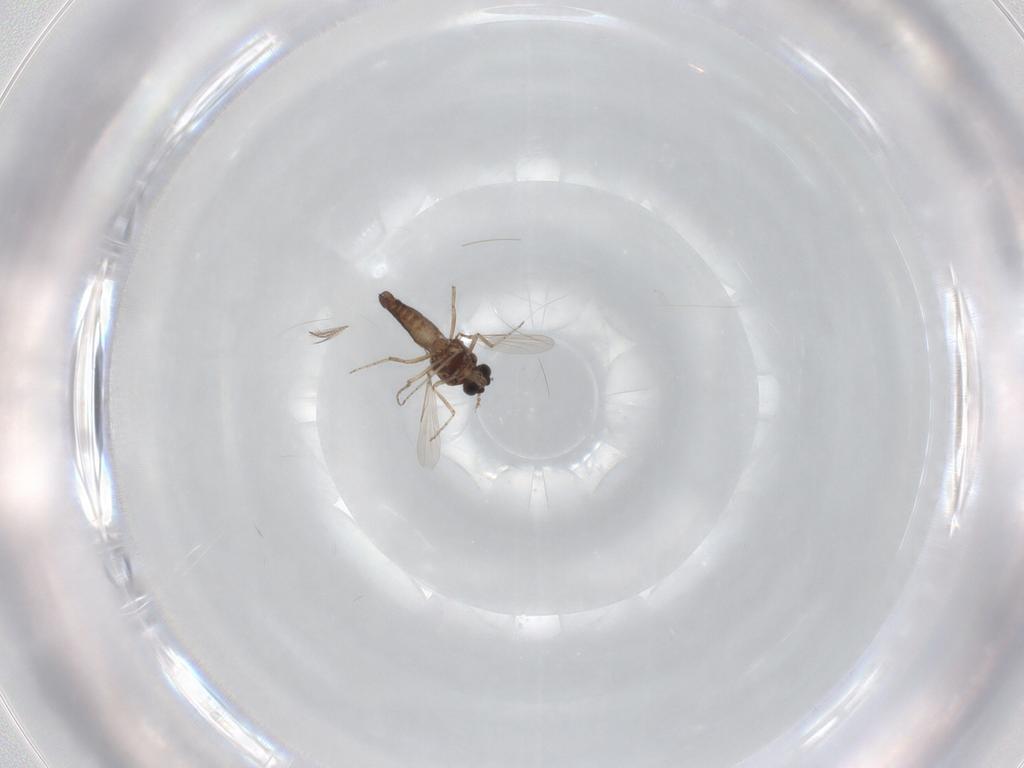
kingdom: Animalia
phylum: Arthropoda
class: Insecta
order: Diptera
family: Ceratopogonidae
